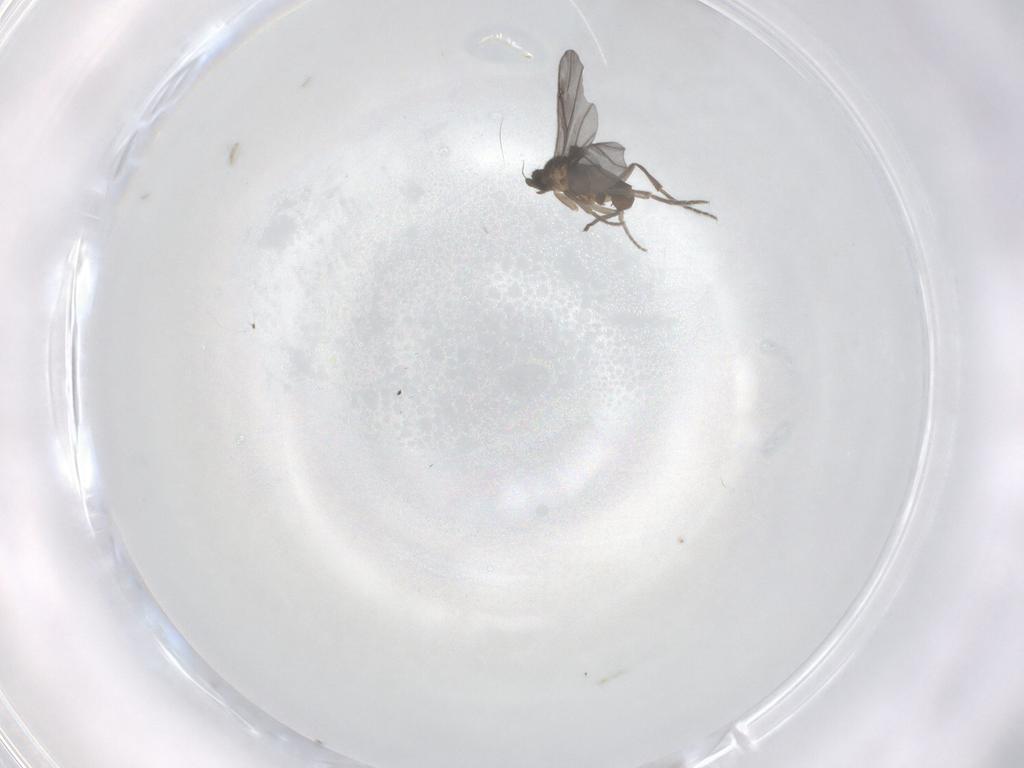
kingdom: Animalia
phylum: Arthropoda
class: Insecta
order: Diptera
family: Phoridae
